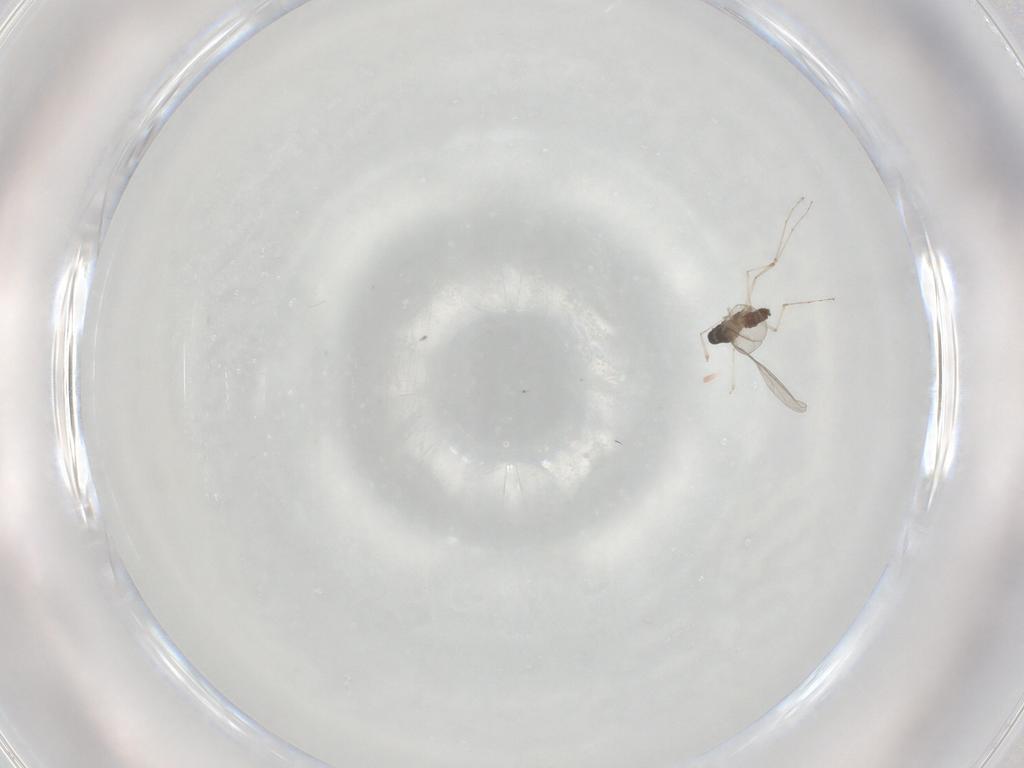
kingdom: Animalia
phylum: Arthropoda
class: Insecta
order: Diptera
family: Cecidomyiidae
